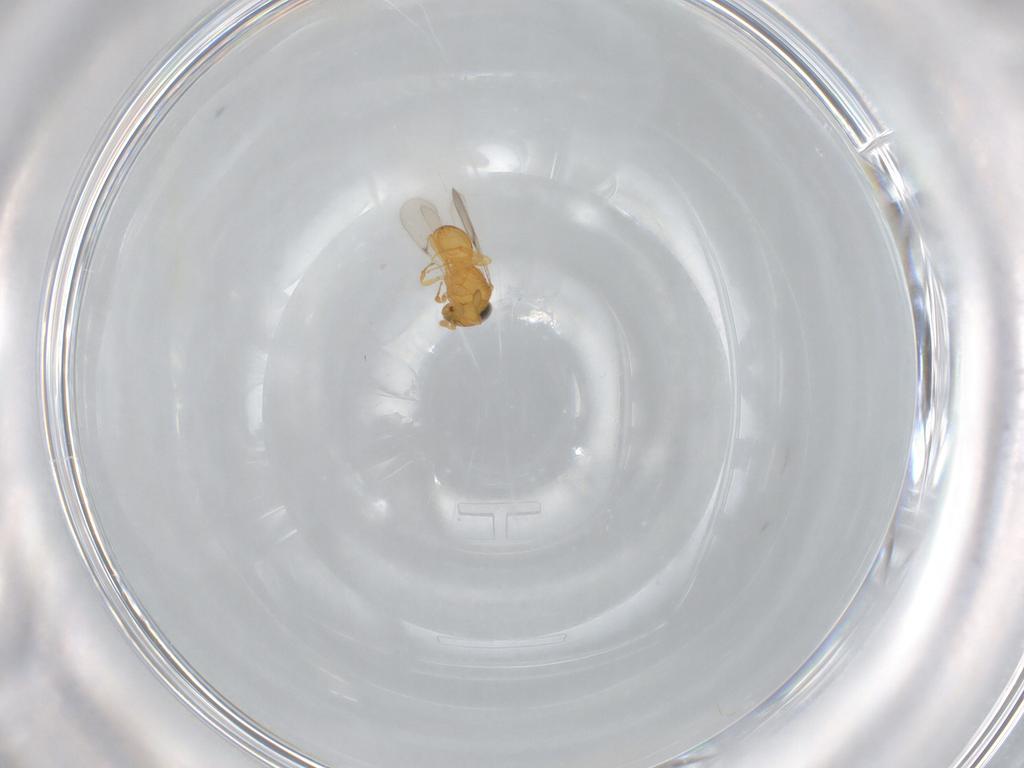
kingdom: Animalia
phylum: Arthropoda
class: Insecta
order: Hymenoptera
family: Scelionidae
